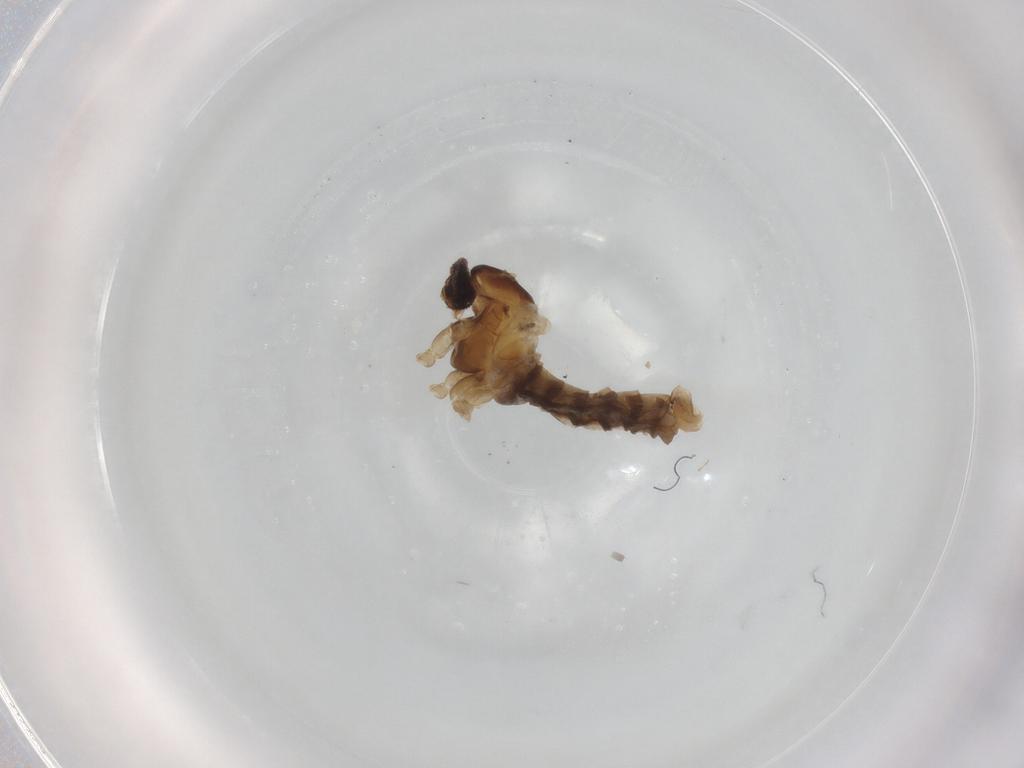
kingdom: Animalia
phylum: Arthropoda
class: Insecta
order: Diptera
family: Cecidomyiidae
